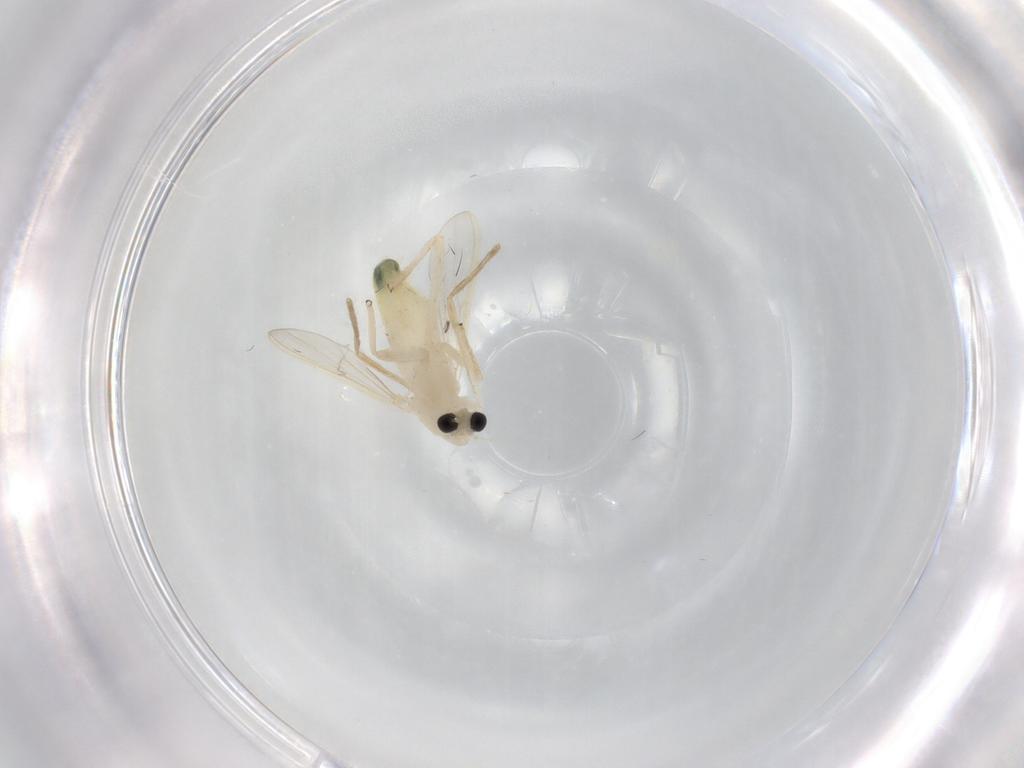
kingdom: Animalia
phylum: Arthropoda
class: Insecta
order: Diptera
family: Chironomidae
